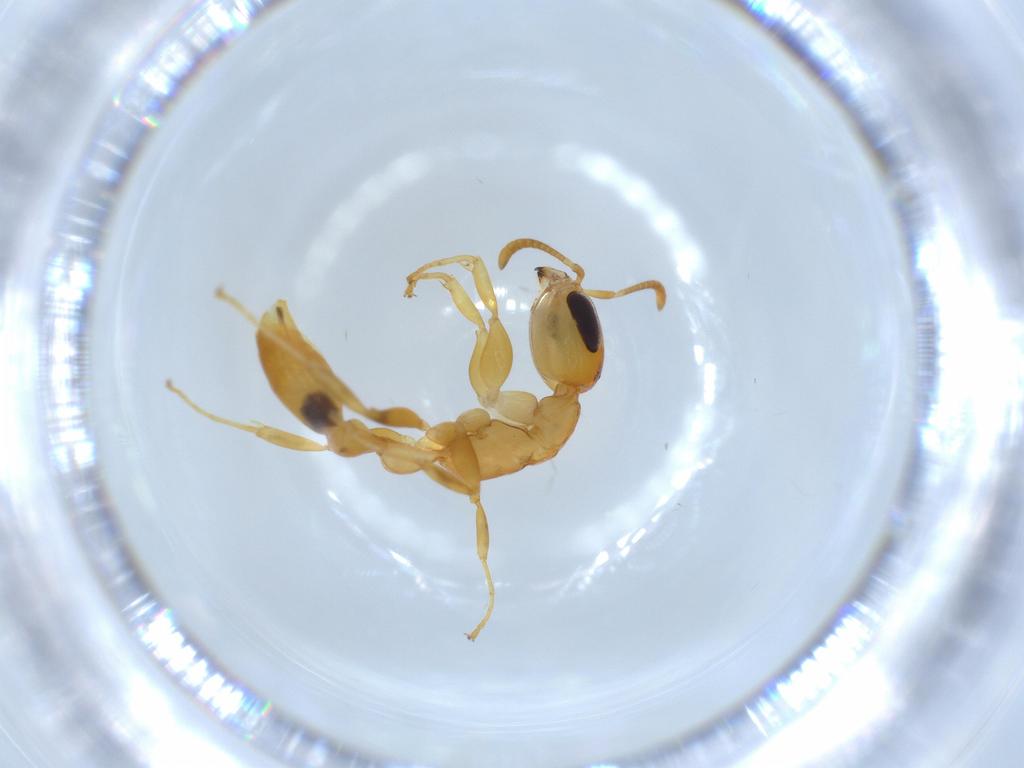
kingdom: Animalia
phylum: Arthropoda
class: Insecta
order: Hymenoptera
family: Formicidae
